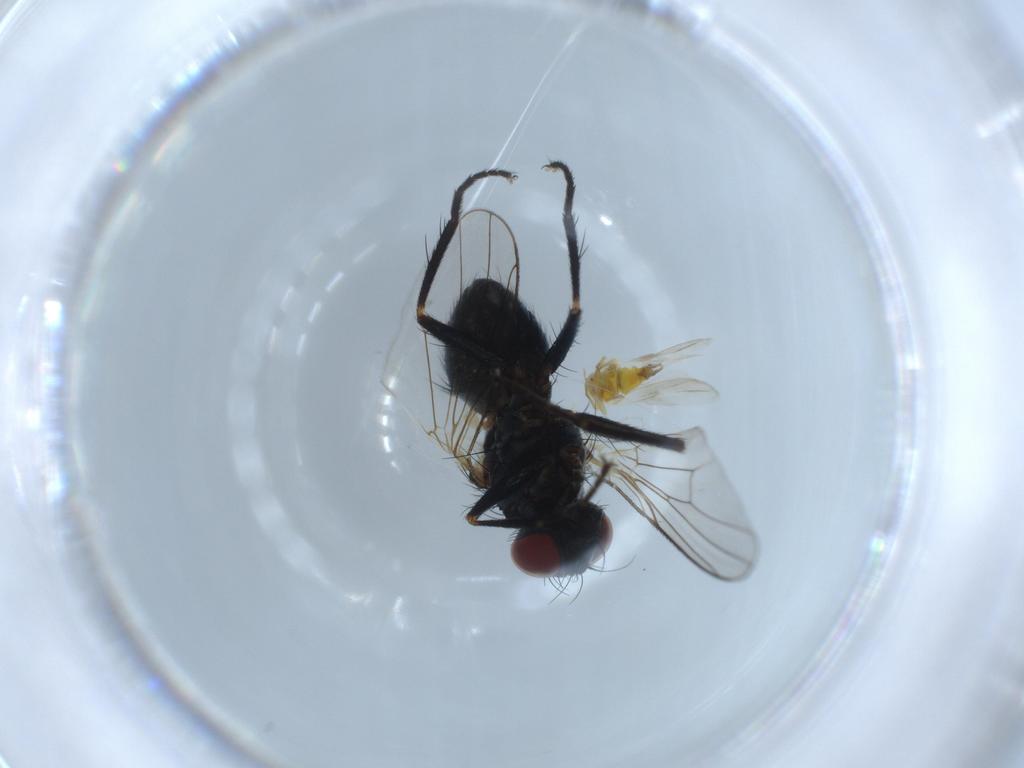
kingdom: Animalia
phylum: Arthropoda
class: Insecta
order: Hemiptera
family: Aleyrodidae
